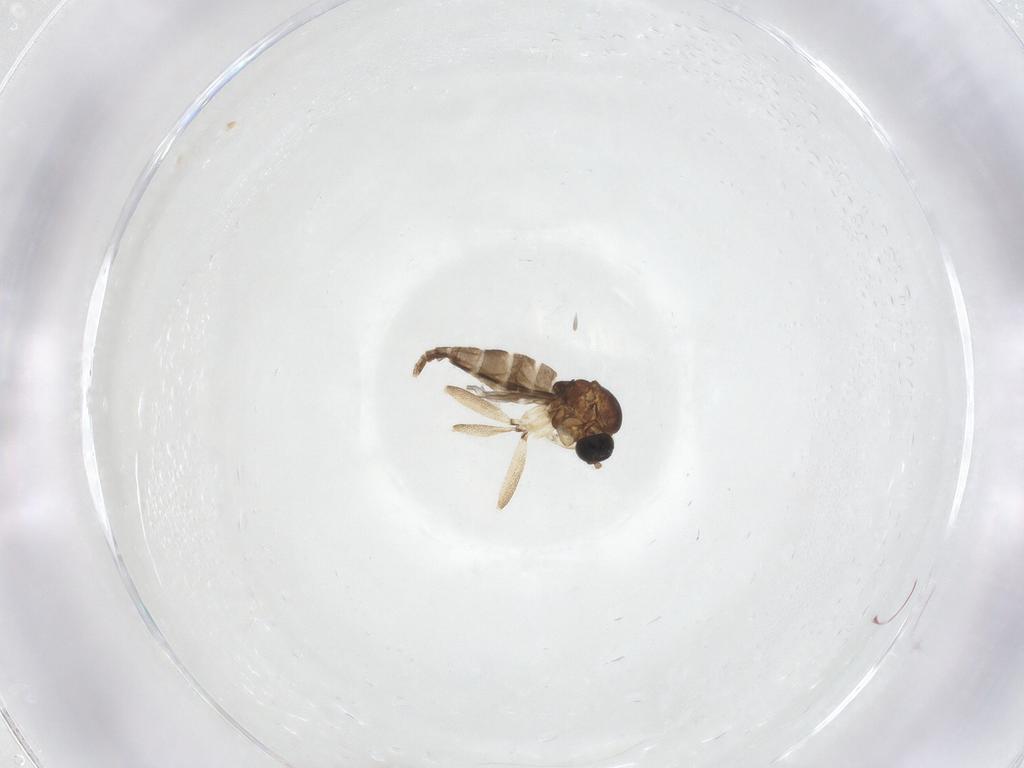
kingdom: Animalia
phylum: Arthropoda
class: Insecta
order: Diptera
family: Sciaridae
